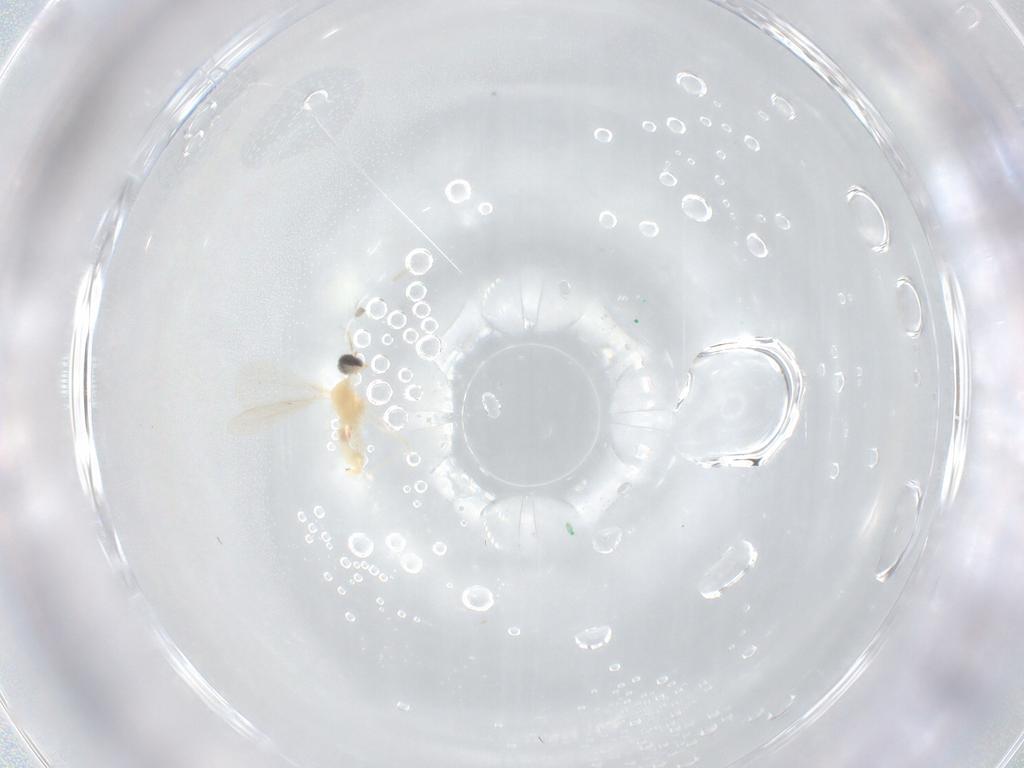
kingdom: Animalia
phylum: Arthropoda
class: Insecta
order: Diptera
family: Cecidomyiidae
